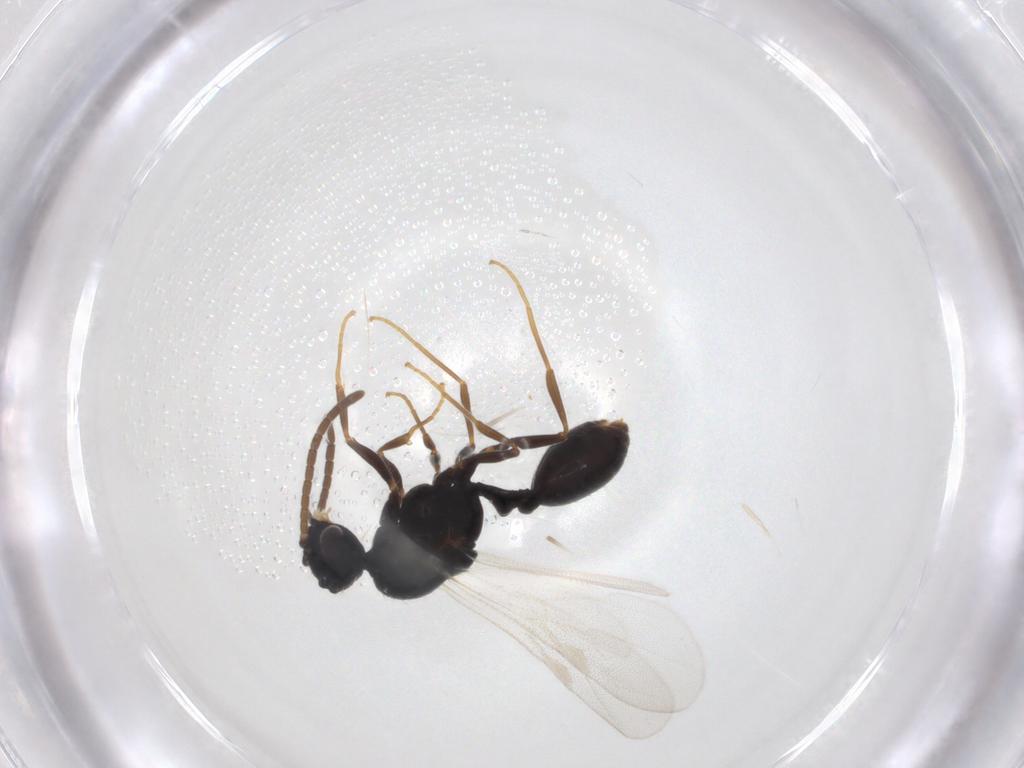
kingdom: Animalia
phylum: Arthropoda
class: Insecta
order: Hymenoptera
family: Formicidae
